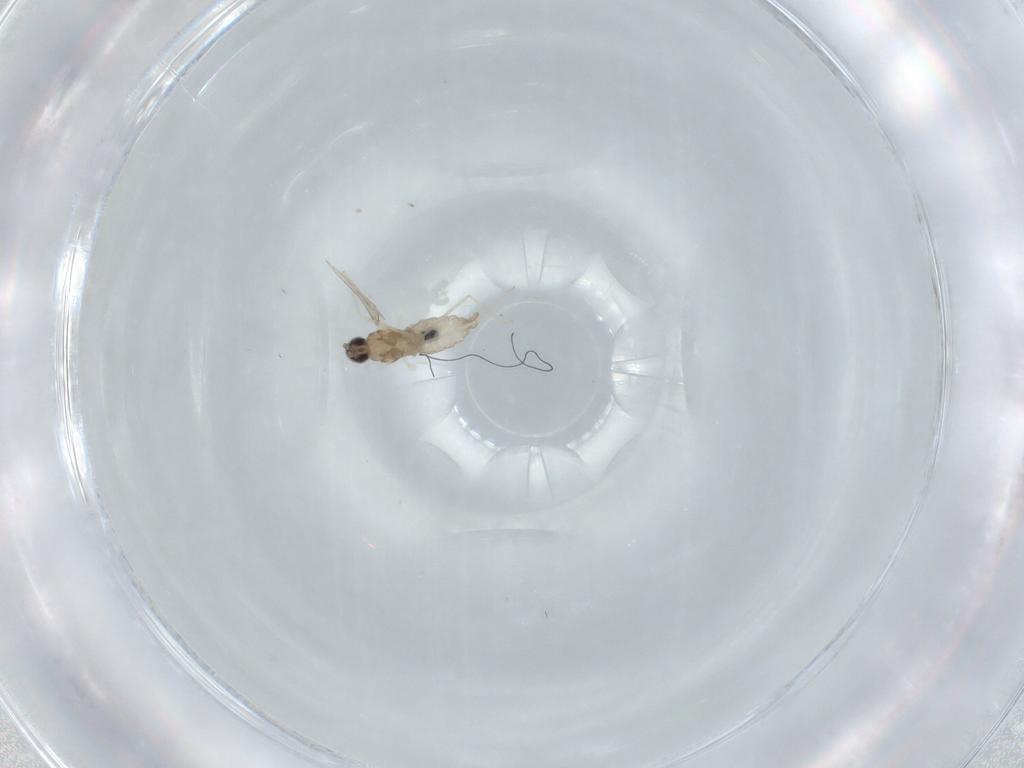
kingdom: Animalia
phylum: Arthropoda
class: Insecta
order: Diptera
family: Cecidomyiidae
